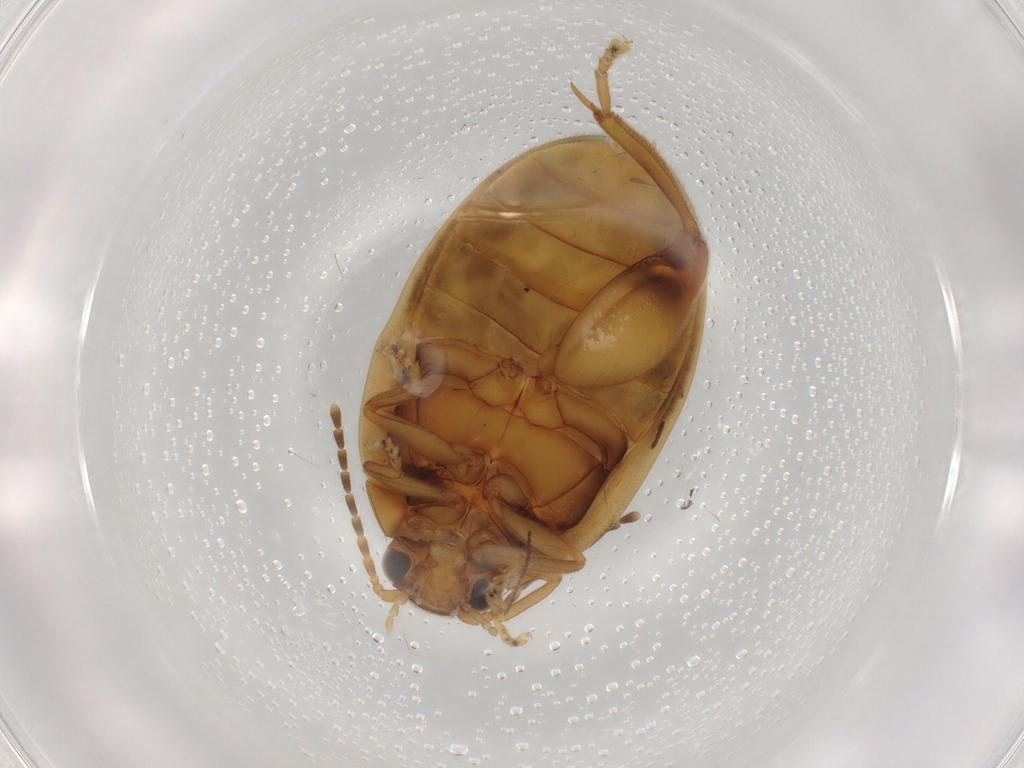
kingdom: Animalia
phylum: Arthropoda
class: Insecta
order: Coleoptera
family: Scirtidae
